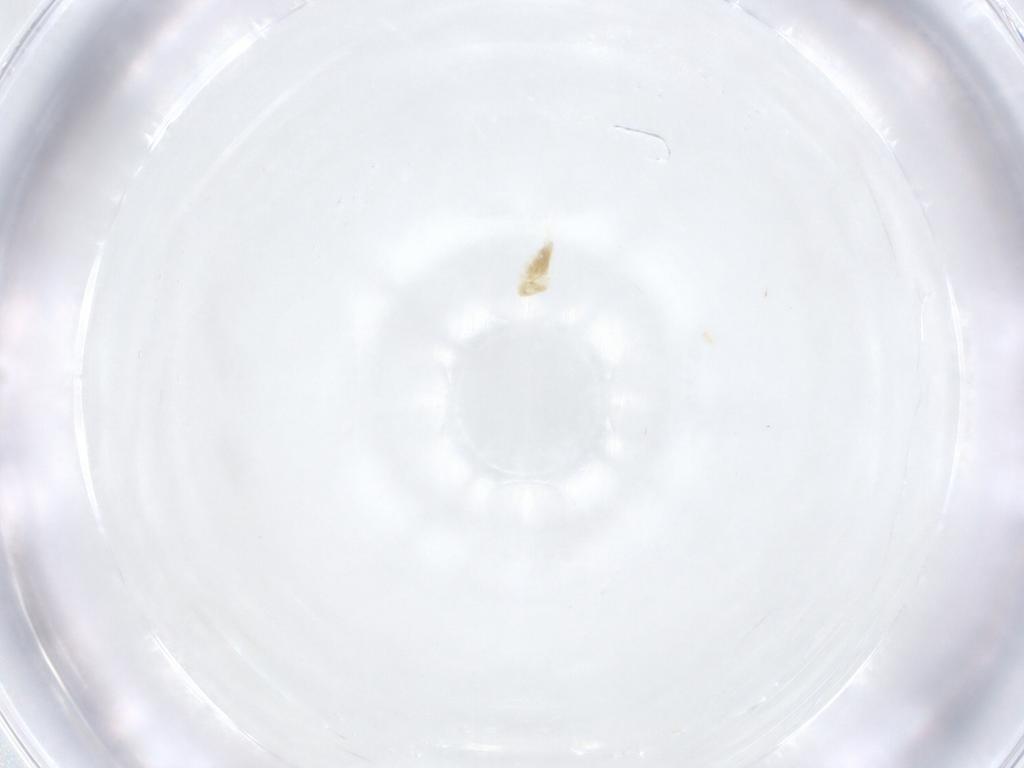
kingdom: Animalia
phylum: Arthropoda
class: Arachnida
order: Trombidiformes
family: Eupodidae
